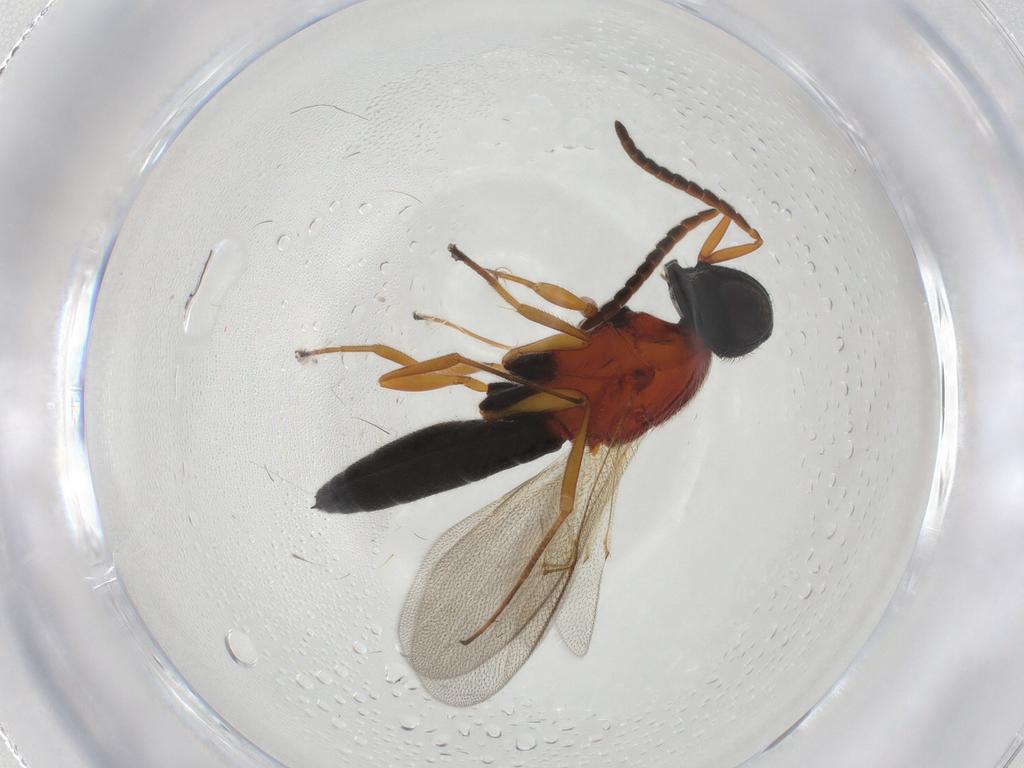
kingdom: Animalia
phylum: Arthropoda
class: Insecta
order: Hymenoptera
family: Scelionidae
